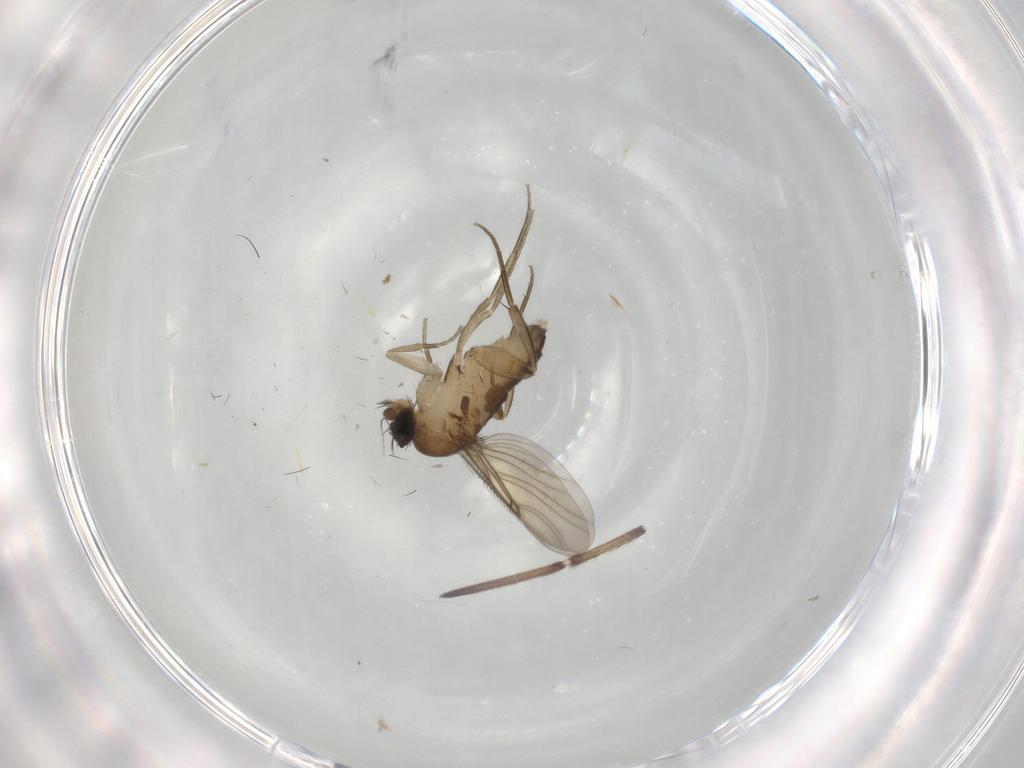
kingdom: Animalia
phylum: Arthropoda
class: Insecta
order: Diptera
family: Phoridae
